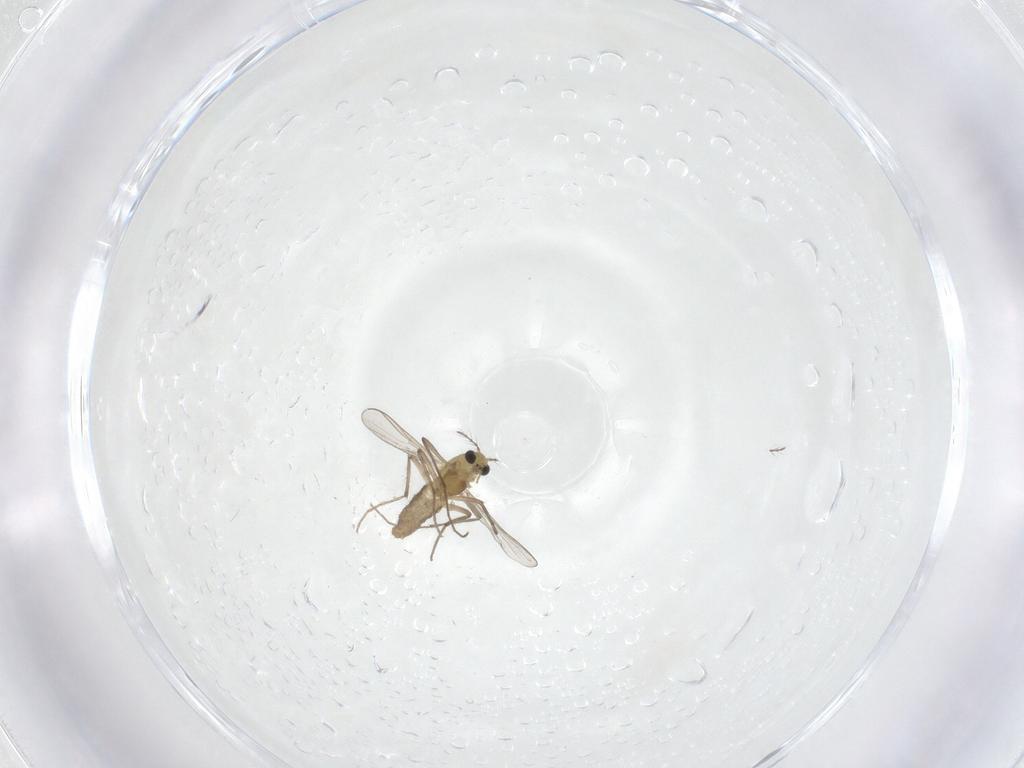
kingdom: Animalia
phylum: Arthropoda
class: Insecta
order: Diptera
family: Chironomidae
